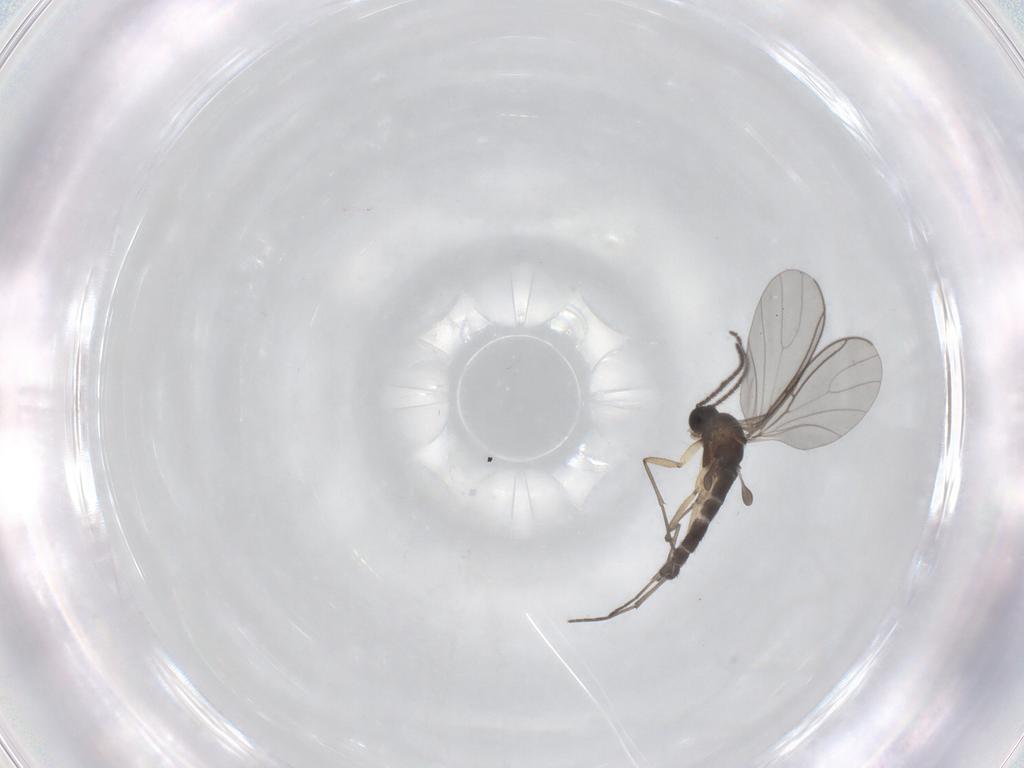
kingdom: Animalia
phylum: Arthropoda
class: Insecta
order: Diptera
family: Sciaridae
